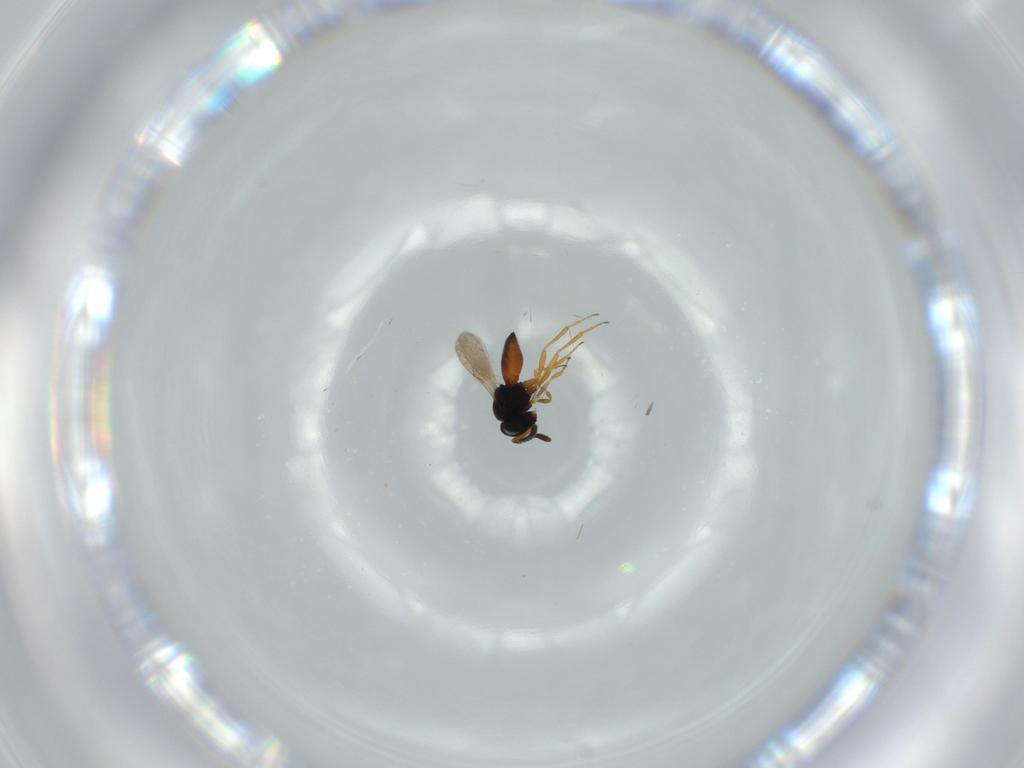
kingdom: Animalia
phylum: Arthropoda
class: Insecta
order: Hymenoptera
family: Scelionidae
